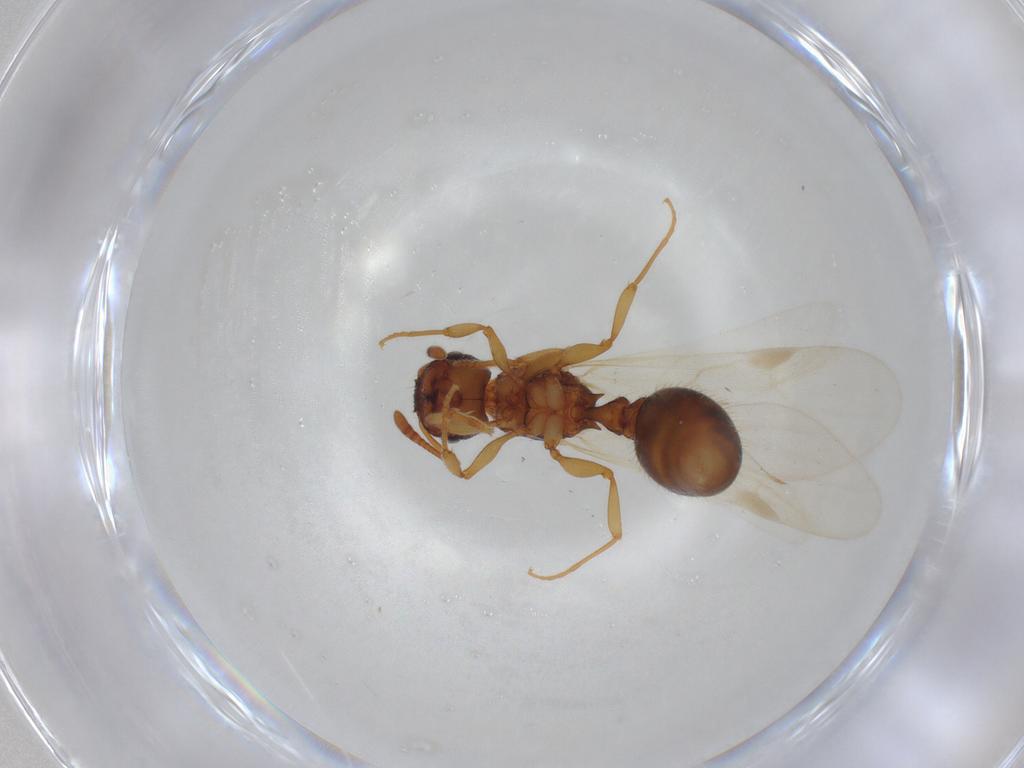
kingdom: Animalia
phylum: Arthropoda
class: Insecta
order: Hymenoptera
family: Formicidae
